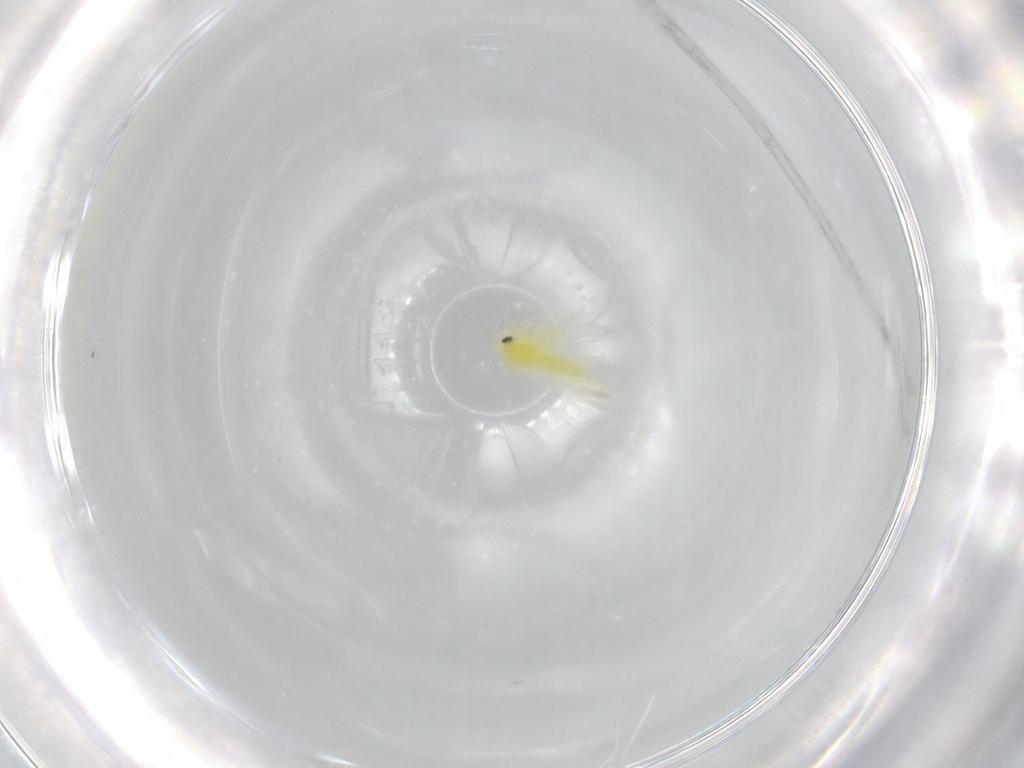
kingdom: Animalia
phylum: Arthropoda
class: Insecta
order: Hemiptera
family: Aleyrodidae
